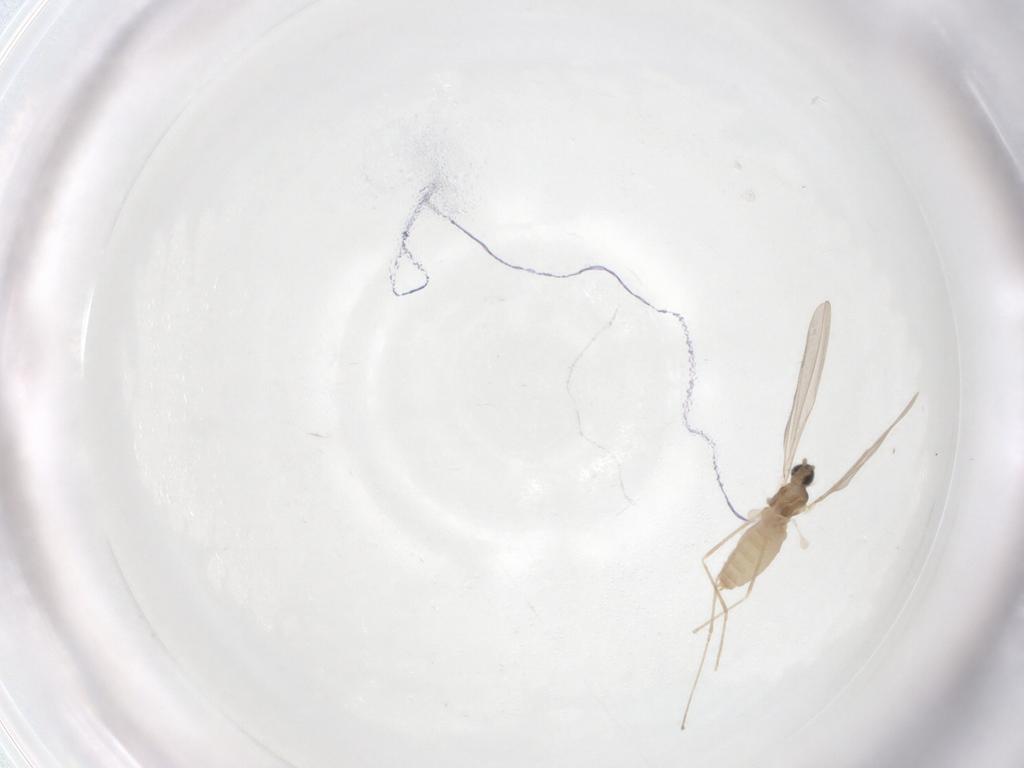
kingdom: Animalia
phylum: Arthropoda
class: Insecta
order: Diptera
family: Cecidomyiidae
